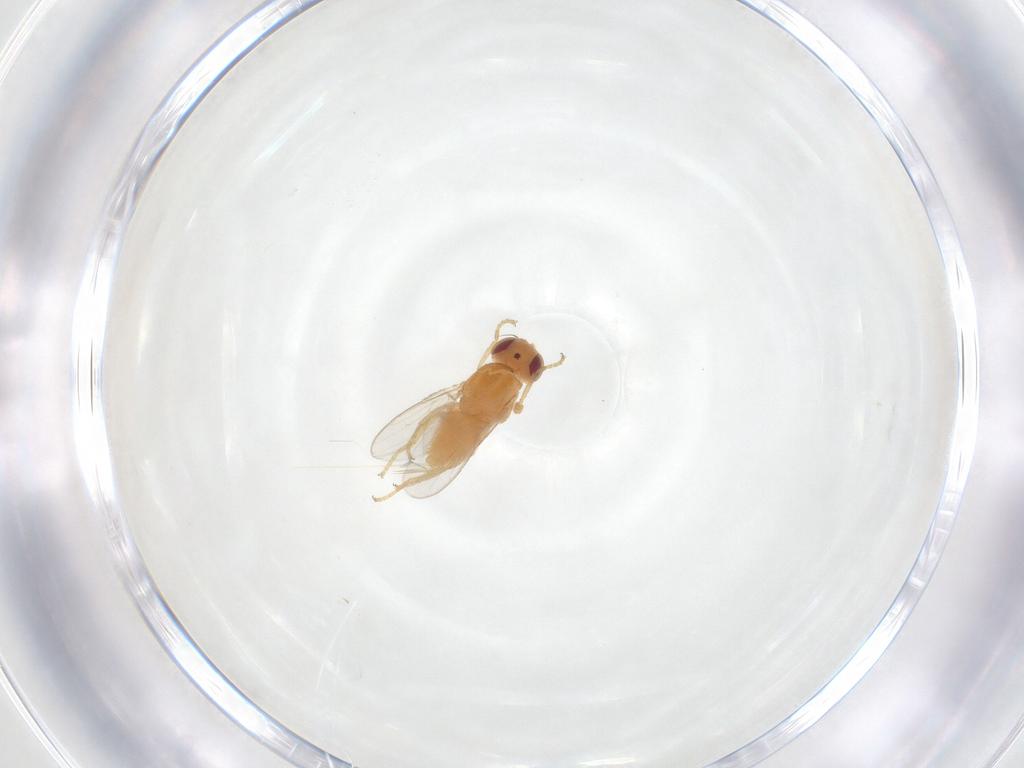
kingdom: Animalia
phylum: Arthropoda
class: Insecta
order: Diptera
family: Chloropidae
